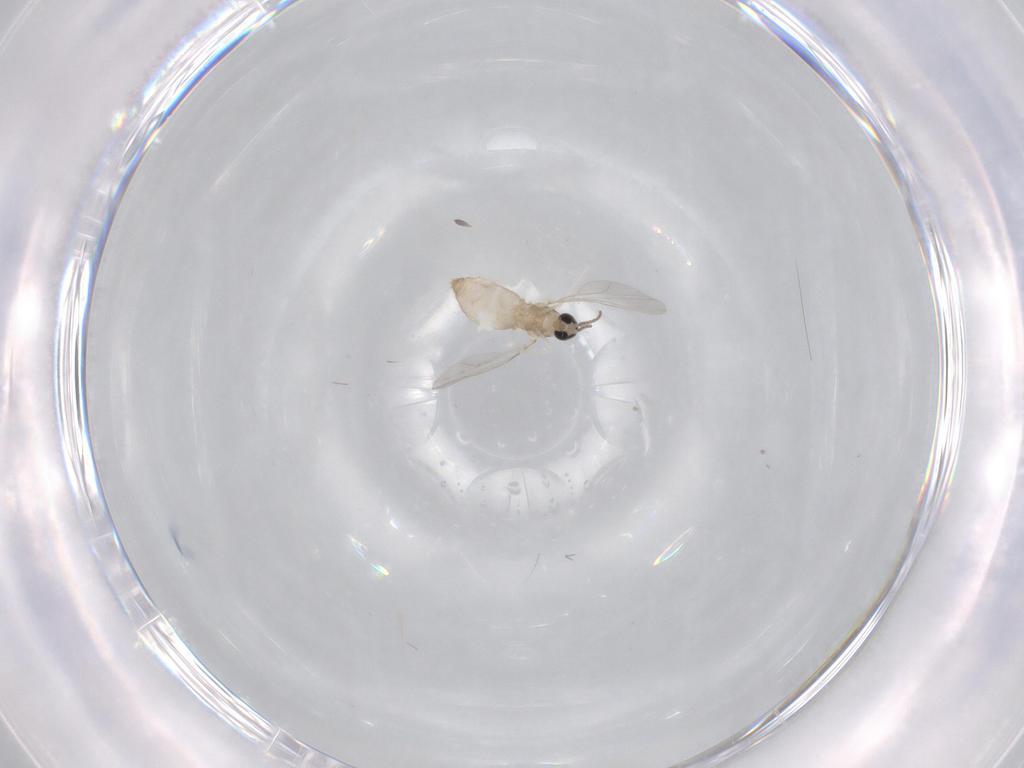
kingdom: Animalia
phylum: Arthropoda
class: Insecta
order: Diptera
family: Cecidomyiidae
